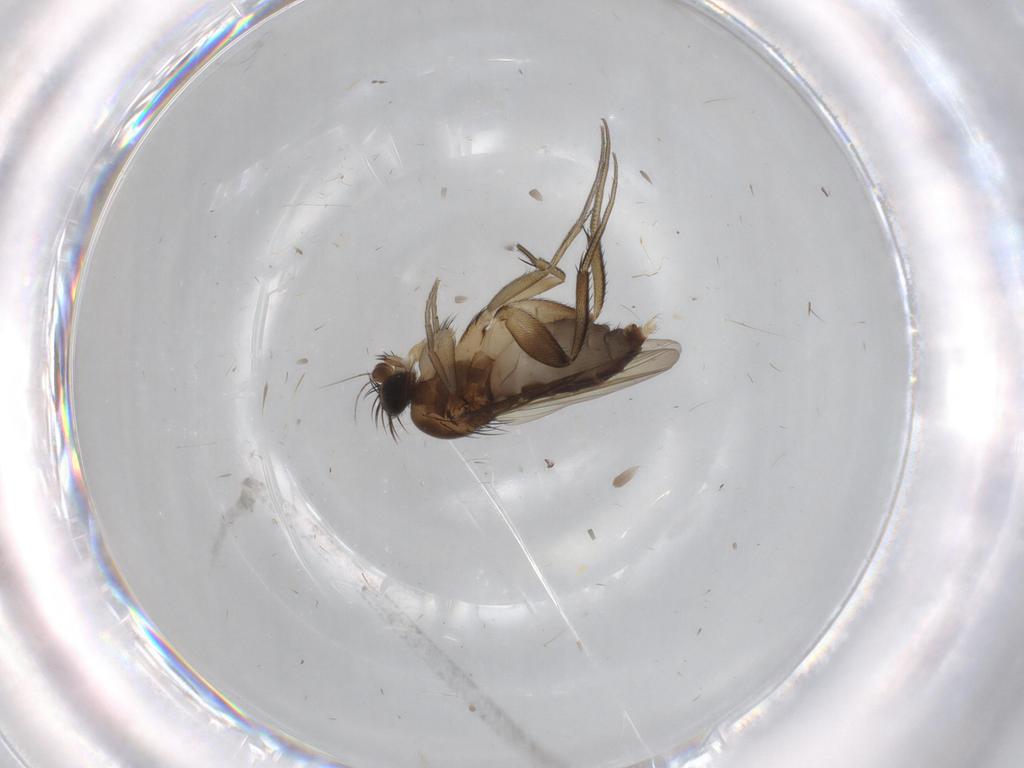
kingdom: Animalia
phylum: Arthropoda
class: Insecta
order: Diptera
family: Phoridae
